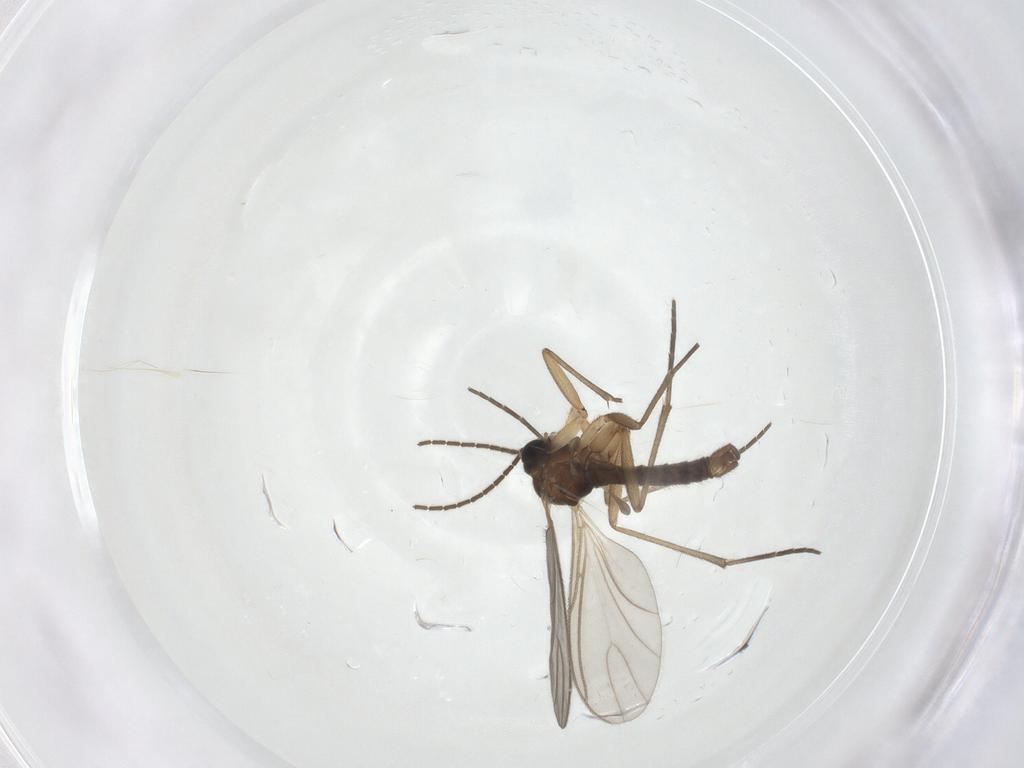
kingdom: Animalia
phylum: Arthropoda
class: Insecta
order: Diptera
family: Sciaridae
